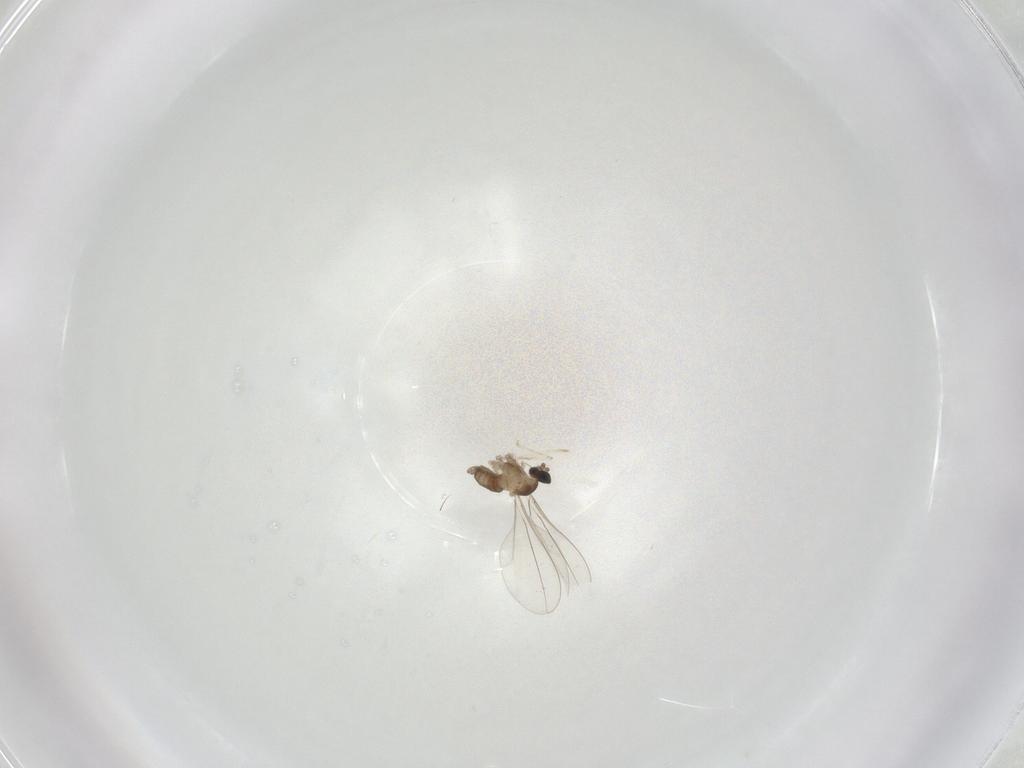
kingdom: Animalia
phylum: Arthropoda
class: Insecta
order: Diptera
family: Cecidomyiidae
